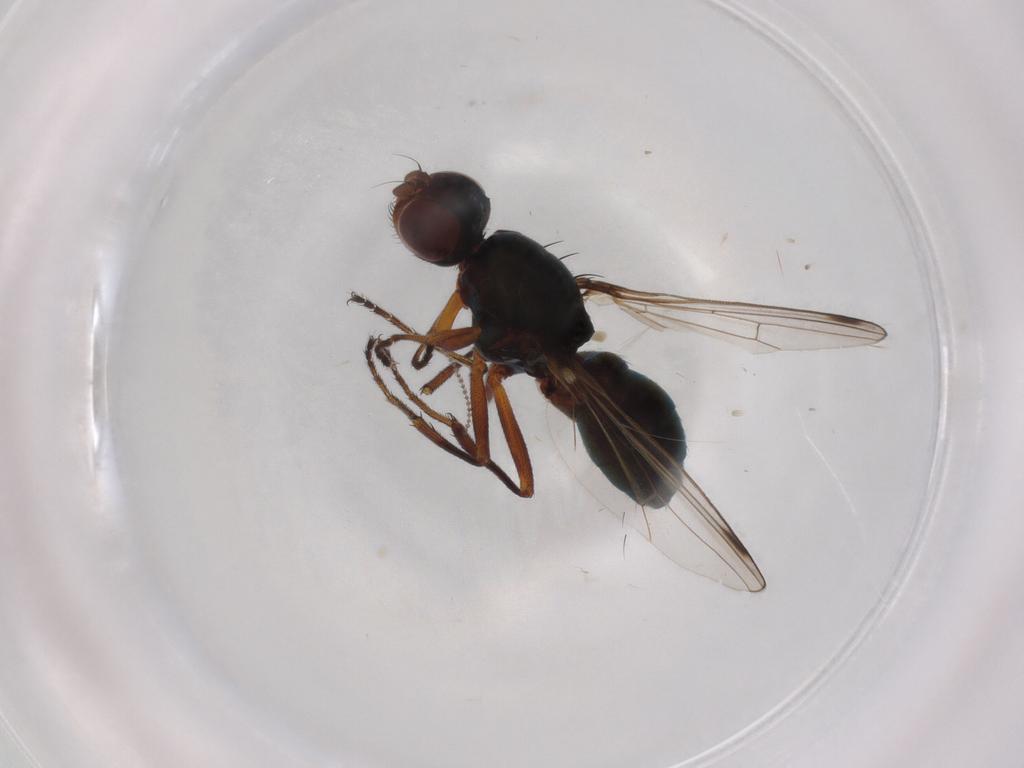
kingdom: Animalia
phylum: Arthropoda
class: Insecta
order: Diptera
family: Sepsidae
